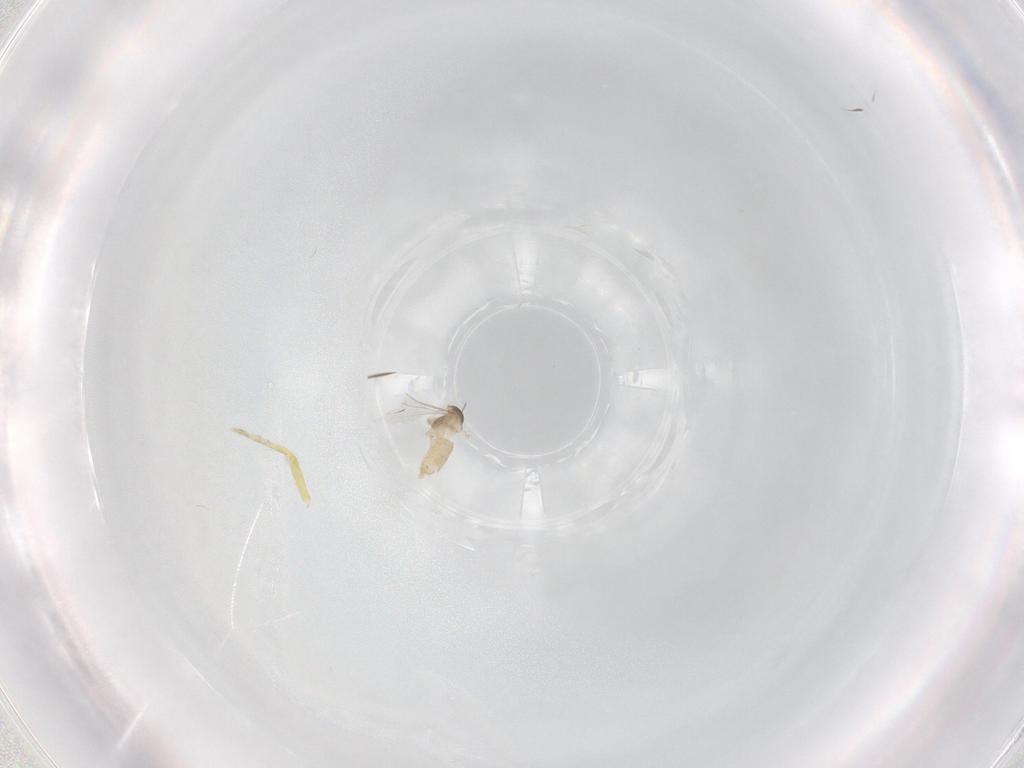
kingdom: Animalia
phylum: Arthropoda
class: Insecta
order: Diptera
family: Cecidomyiidae
